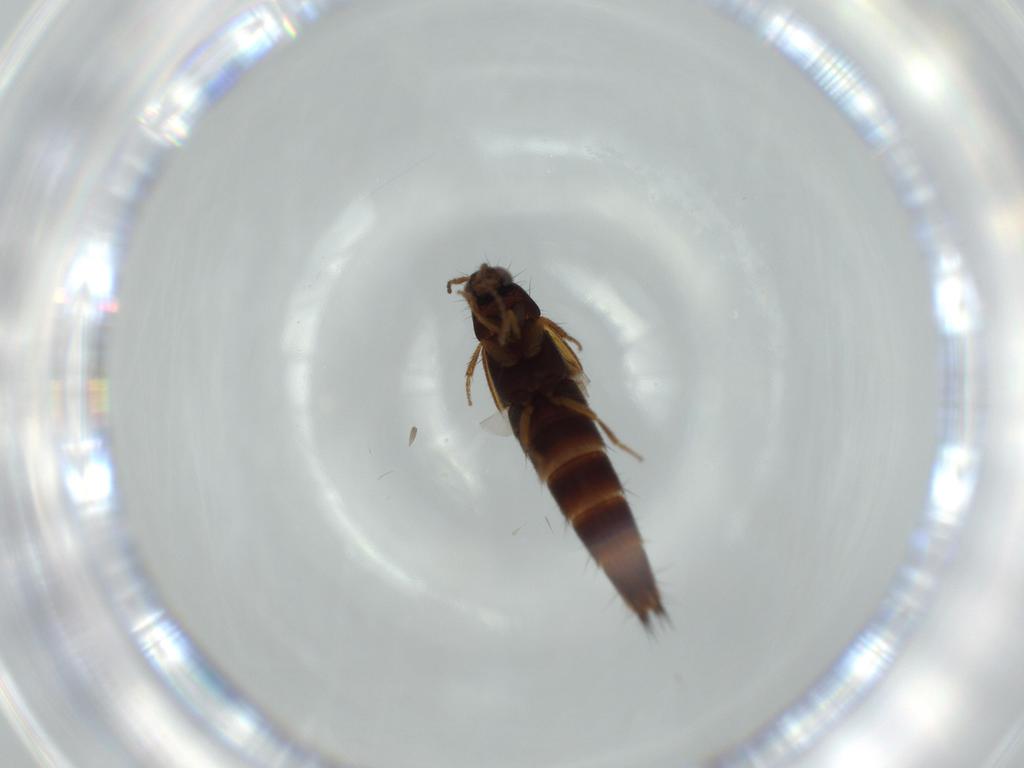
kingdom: Animalia
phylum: Arthropoda
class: Insecta
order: Coleoptera
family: Staphylinidae
